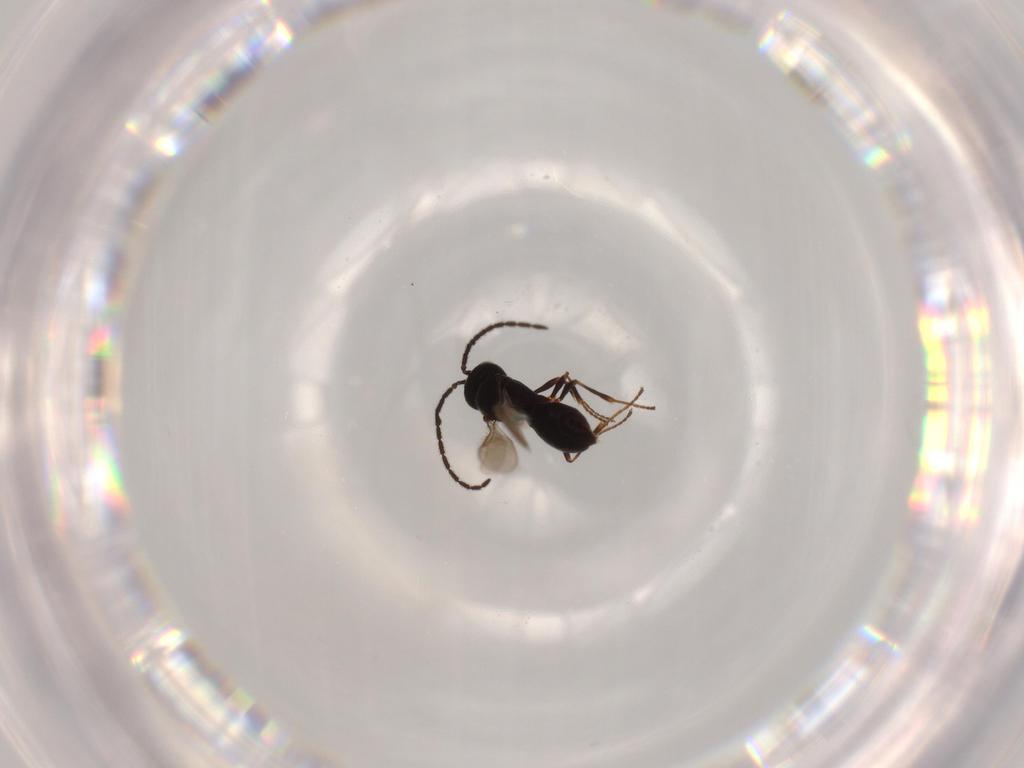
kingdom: Animalia
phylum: Arthropoda
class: Insecta
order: Hymenoptera
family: Scelionidae
